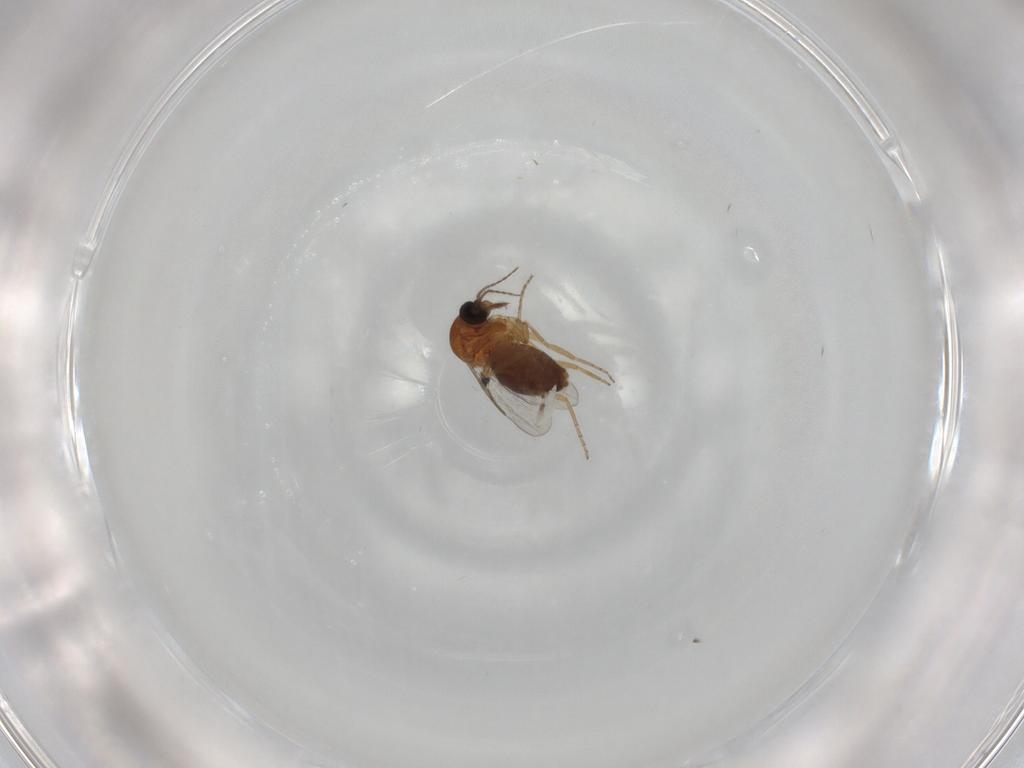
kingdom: Animalia
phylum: Arthropoda
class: Insecta
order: Diptera
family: Ceratopogonidae
